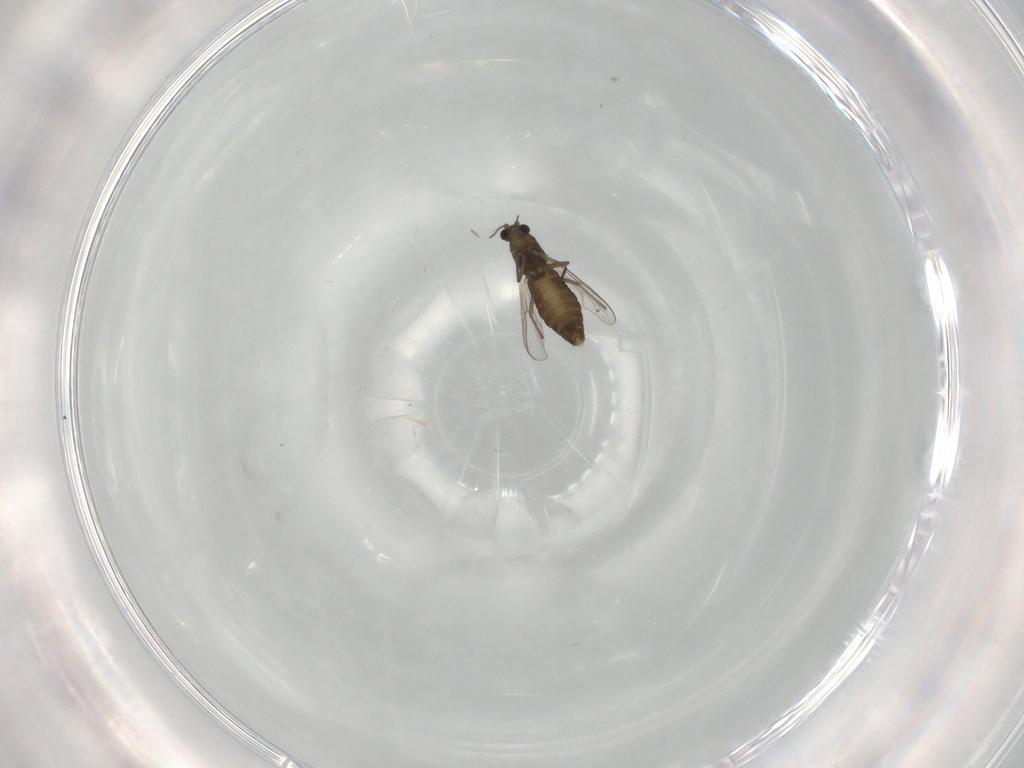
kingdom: Animalia
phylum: Arthropoda
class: Insecta
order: Diptera
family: Chironomidae
